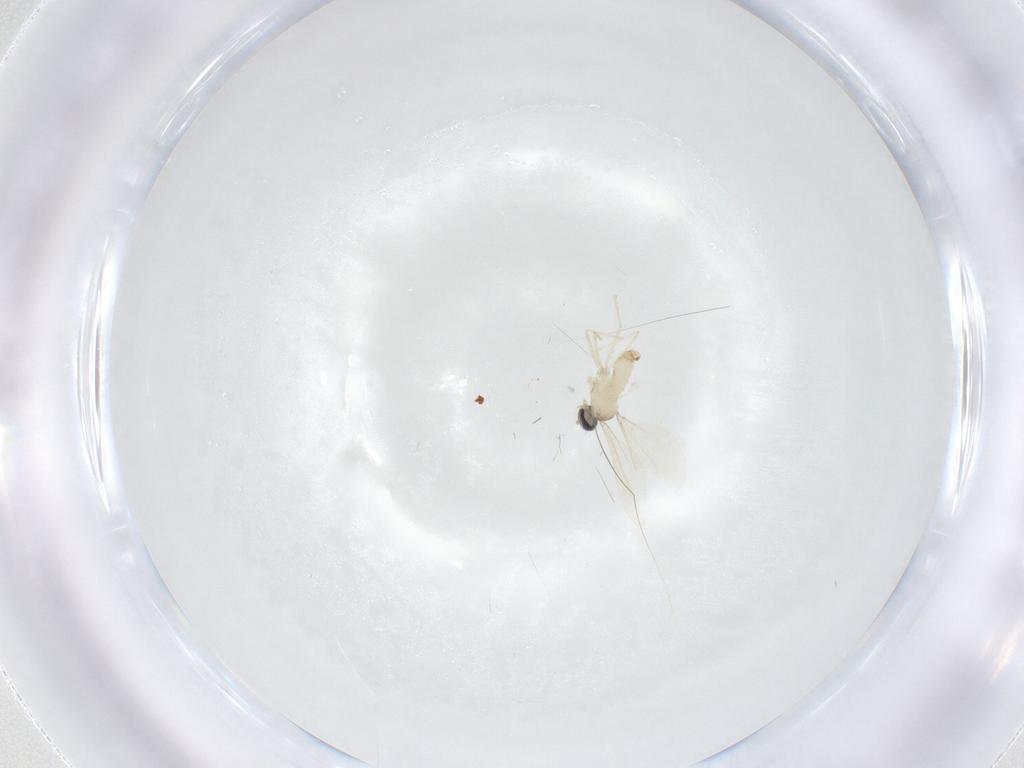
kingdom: Animalia
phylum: Arthropoda
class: Insecta
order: Diptera
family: Cecidomyiidae
